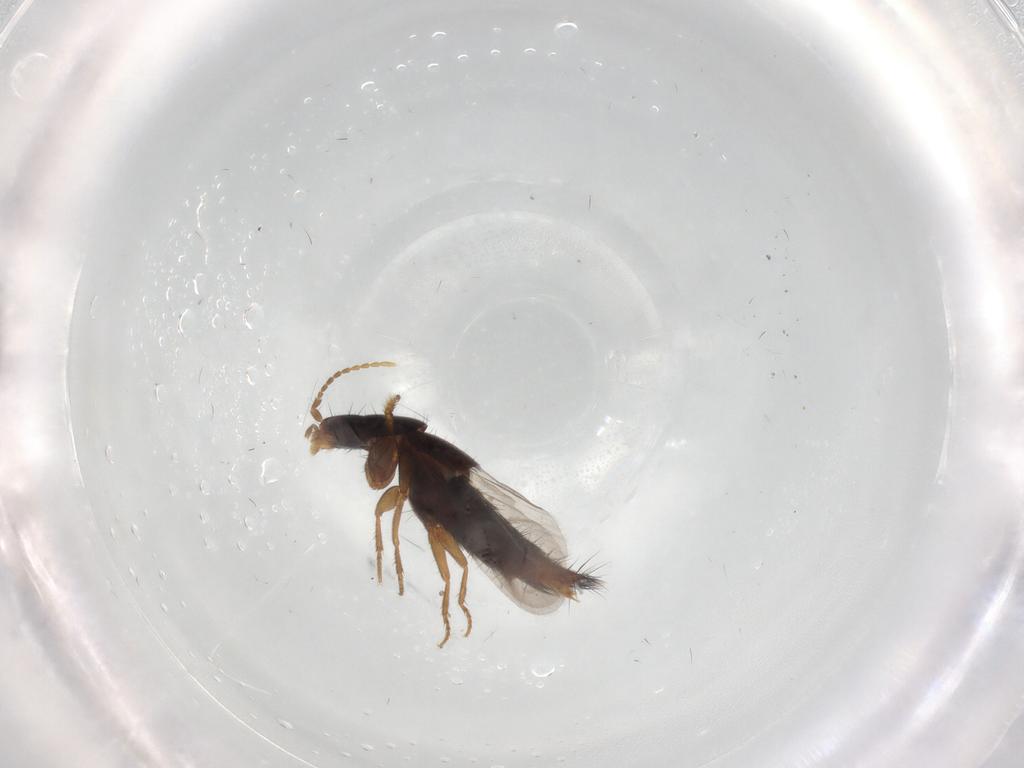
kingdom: Animalia
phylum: Arthropoda
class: Insecta
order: Coleoptera
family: Staphylinidae
